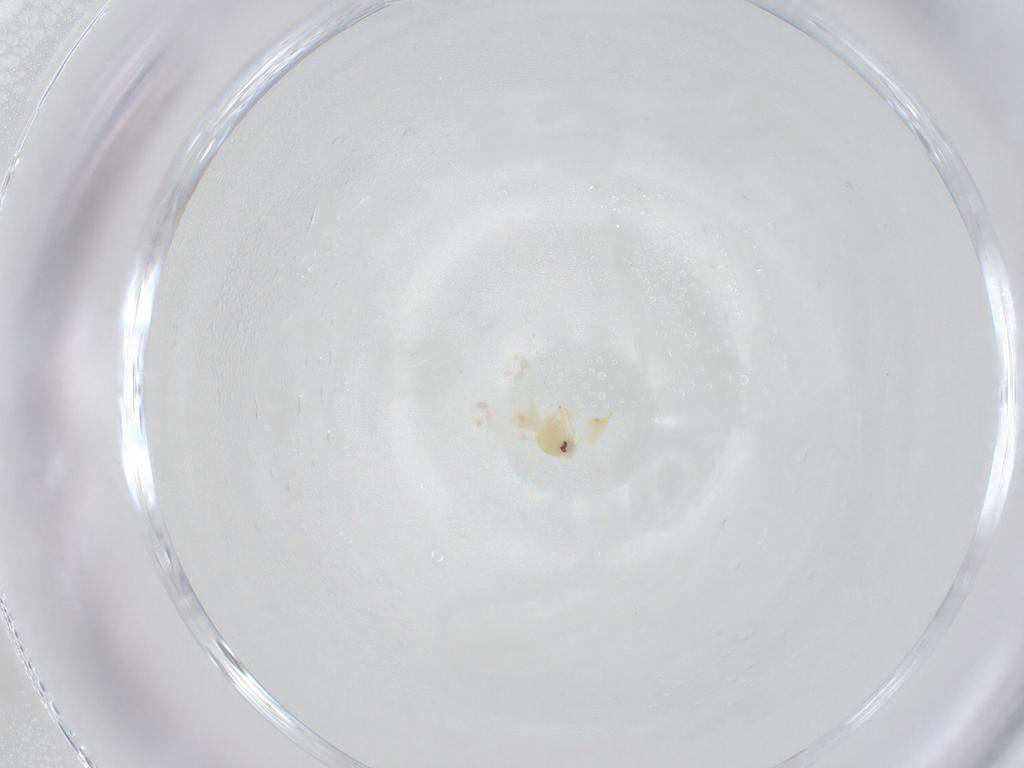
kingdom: Animalia
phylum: Arthropoda
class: Insecta
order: Hemiptera
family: Aleyrodidae
